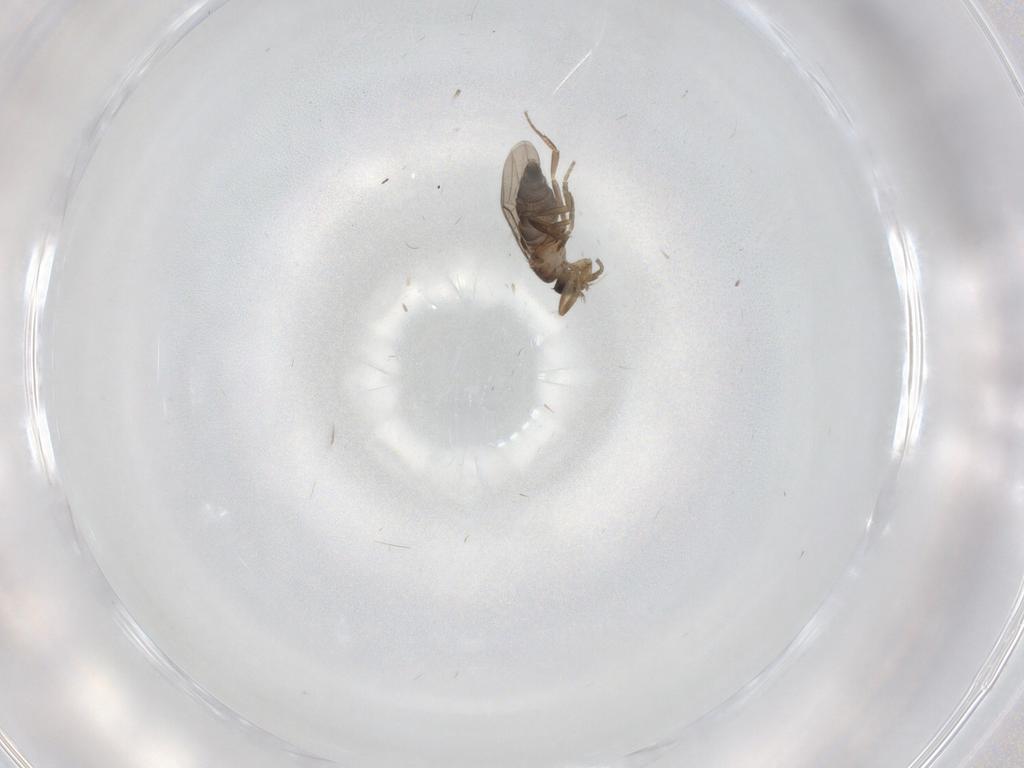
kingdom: Animalia
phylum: Arthropoda
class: Insecta
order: Diptera
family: Phoridae
